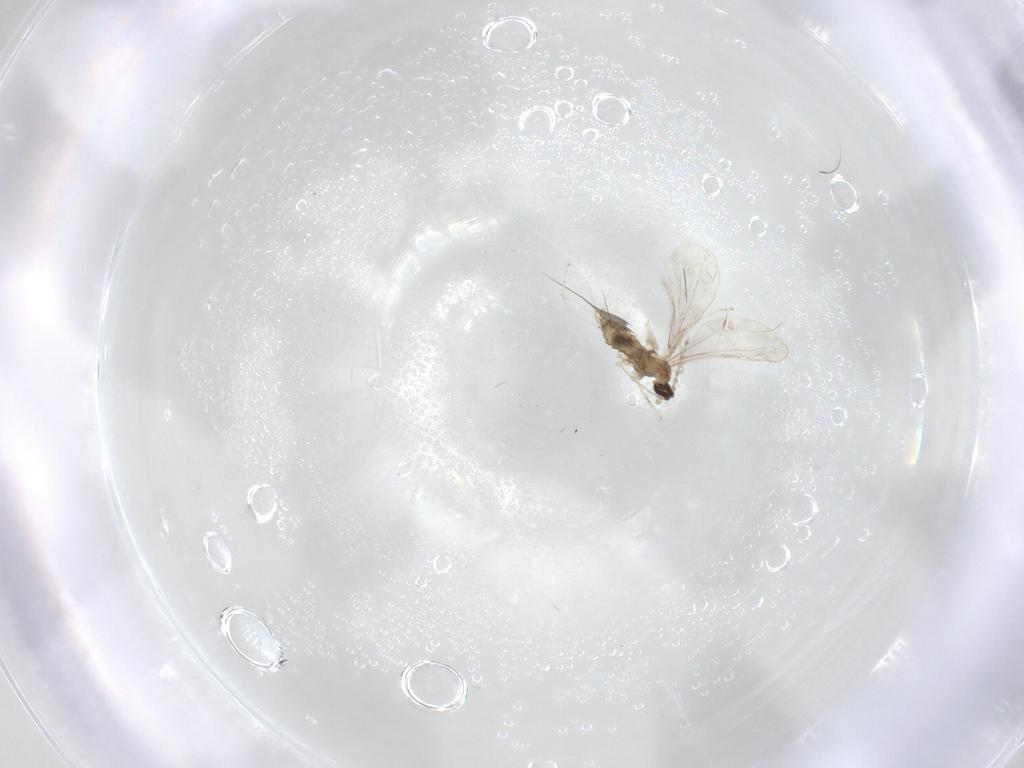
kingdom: Animalia
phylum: Arthropoda
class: Insecta
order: Diptera
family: Cecidomyiidae
